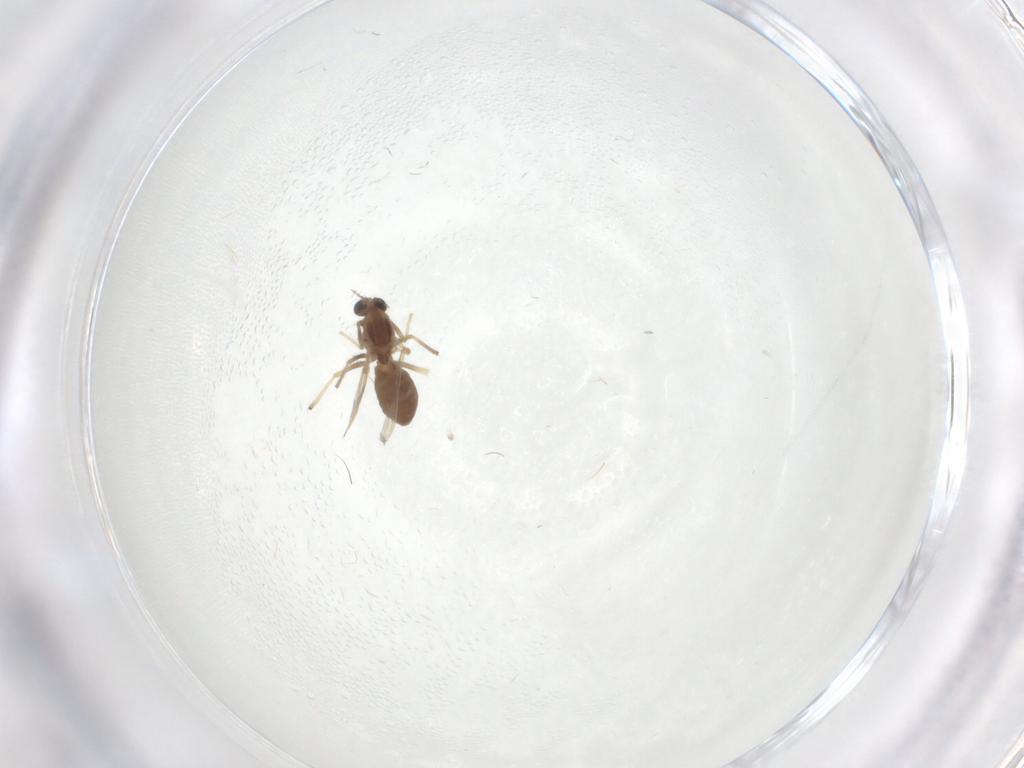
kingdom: Animalia
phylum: Arthropoda
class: Insecta
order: Diptera
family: Chironomidae
